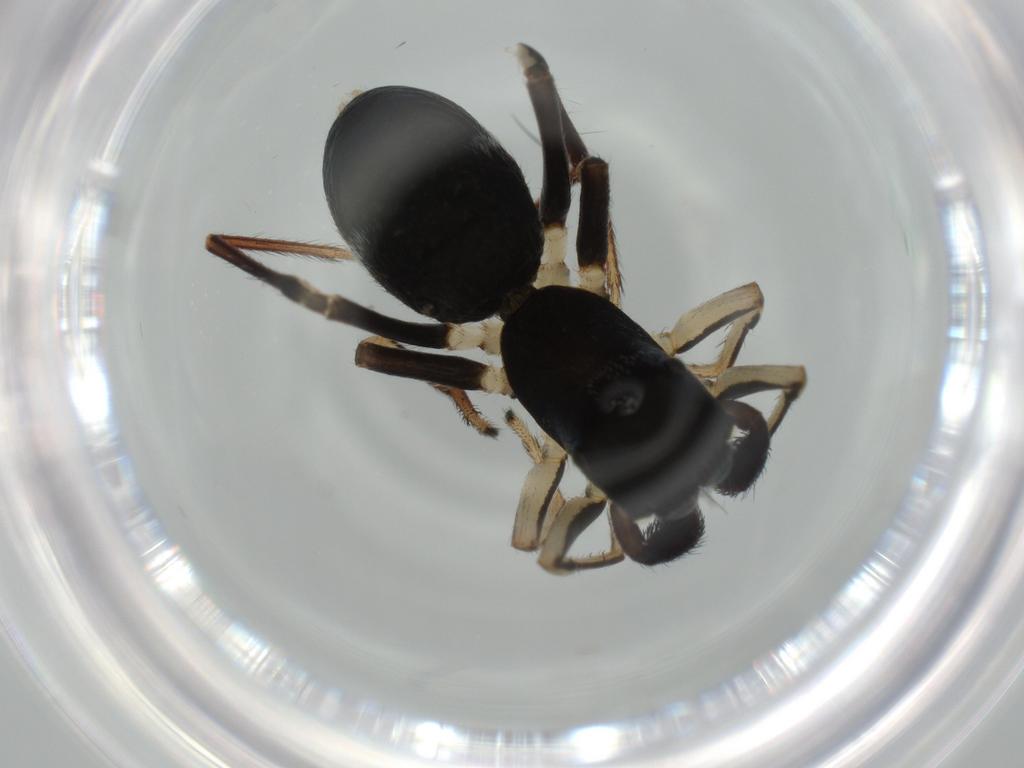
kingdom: Animalia
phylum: Arthropoda
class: Arachnida
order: Araneae
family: Salticidae
